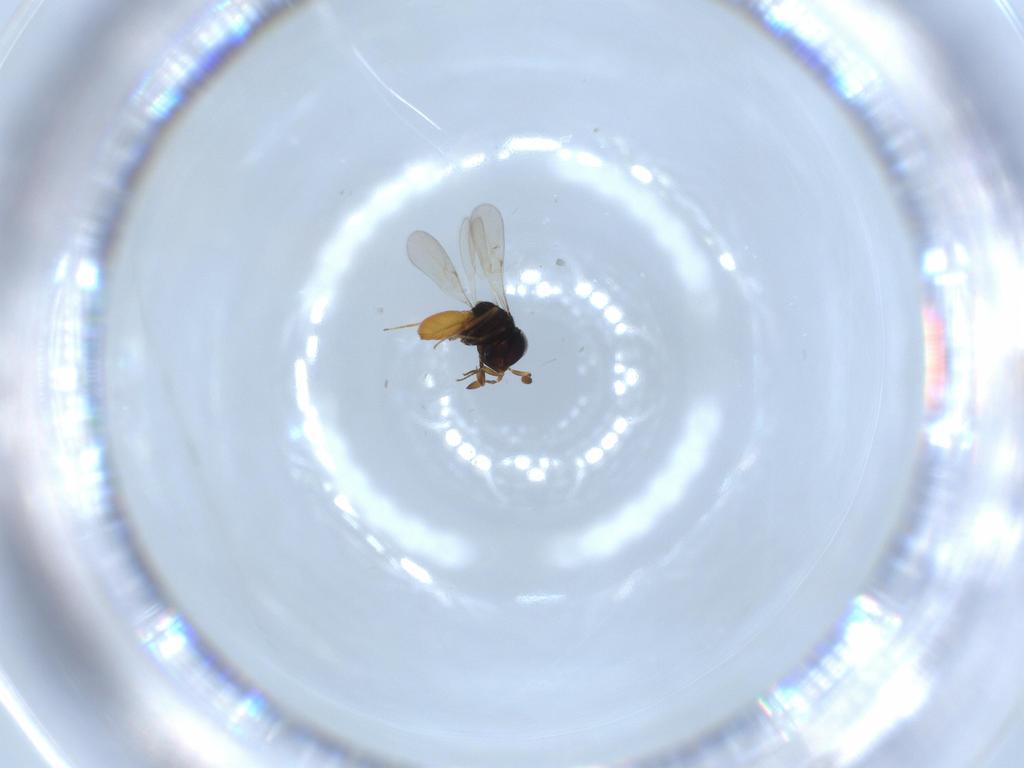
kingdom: Animalia
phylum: Arthropoda
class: Insecta
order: Hymenoptera
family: Scelionidae
